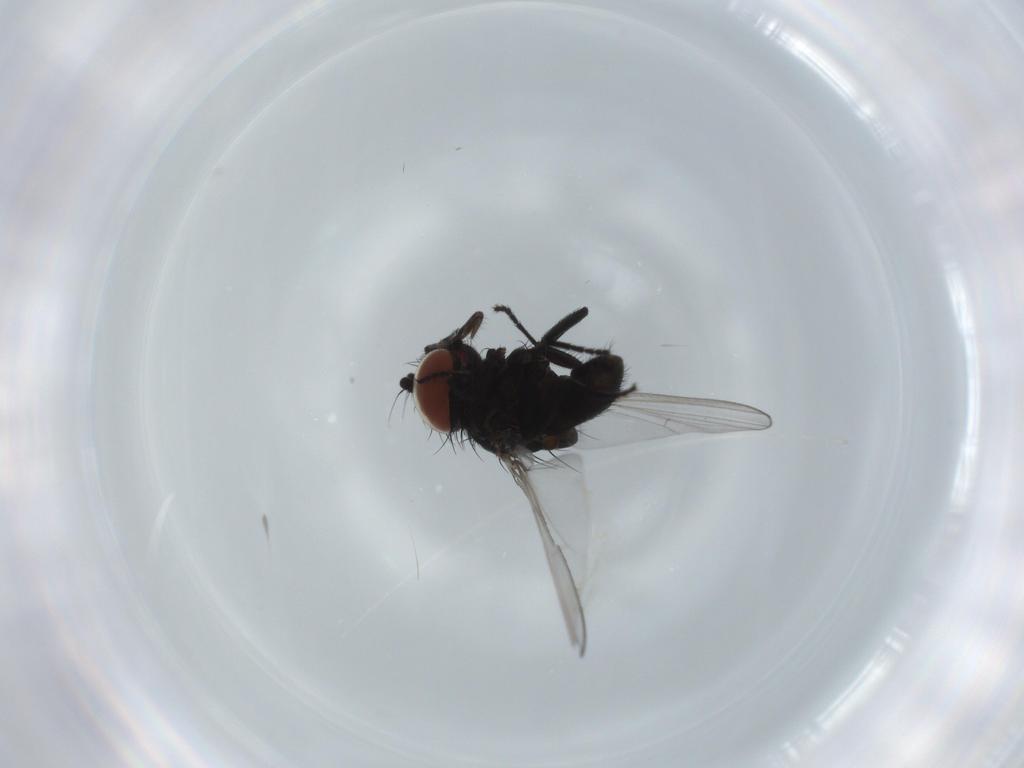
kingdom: Animalia
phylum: Arthropoda
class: Insecta
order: Diptera
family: Milichiidae
